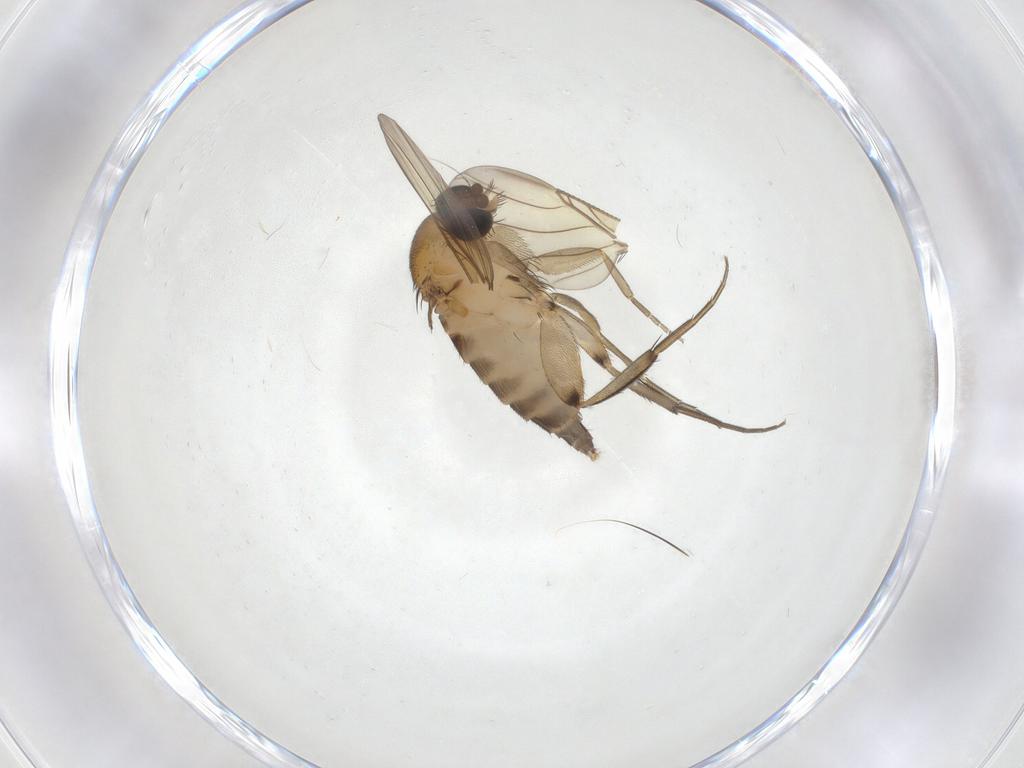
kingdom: Animalia
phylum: Arthropoda
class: Insecta
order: Diptera
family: Phoridae
